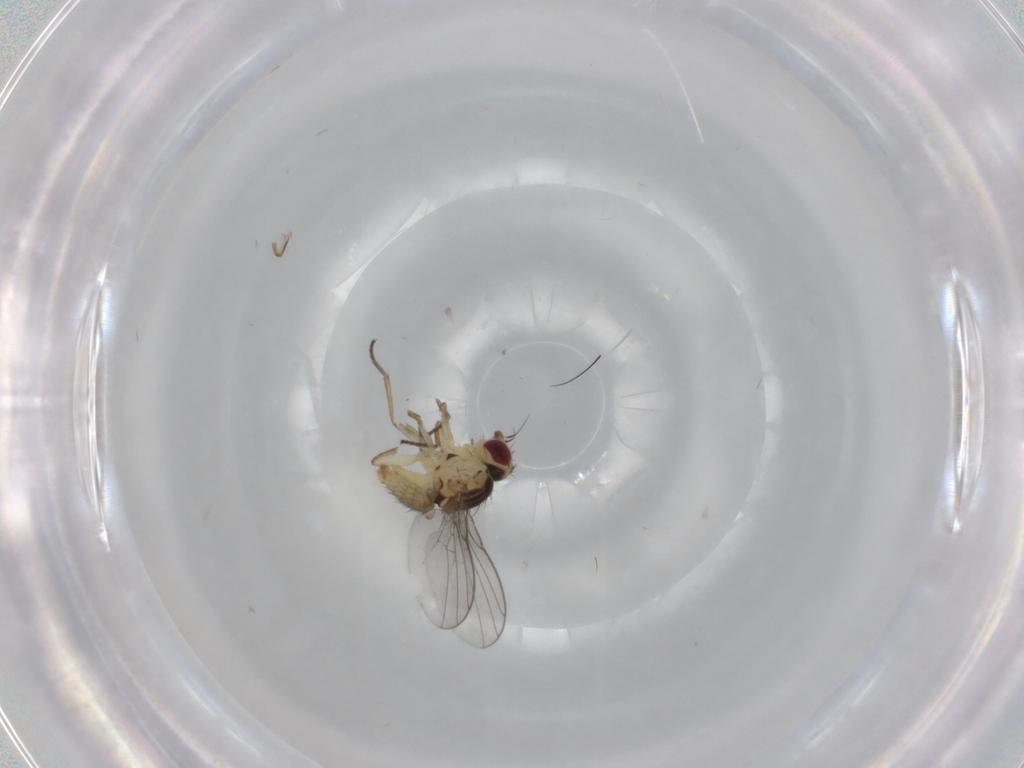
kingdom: Animalia
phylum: Arthropoda
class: Insecta
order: Diptera
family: Agromyzidae
